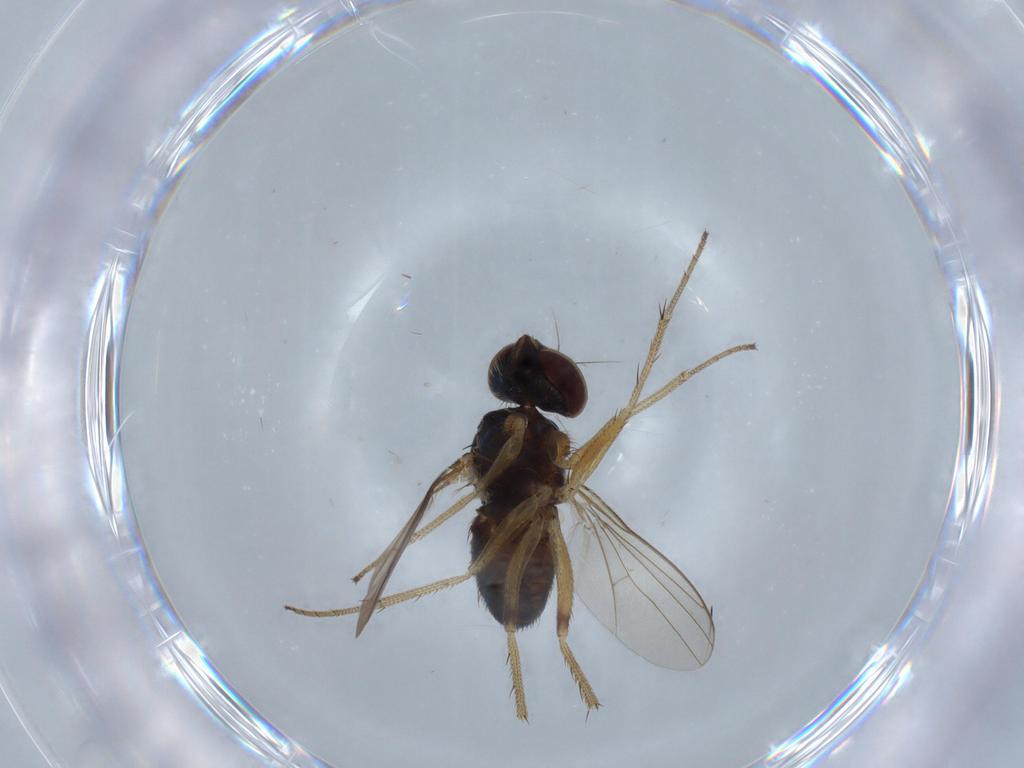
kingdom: Animalia
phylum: Arthropoda
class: Insecta
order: Diptera
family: Dolichopodidae
